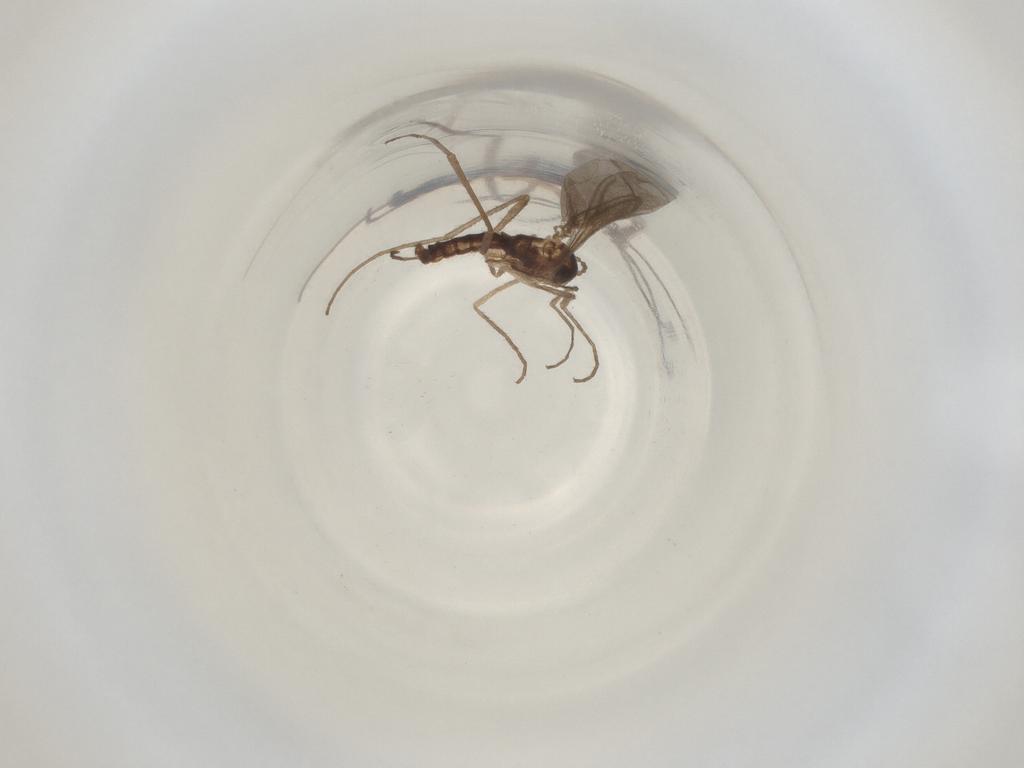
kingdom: Animalia
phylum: Arthropoda
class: Insecta
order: Diptera
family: Cecidomyiidae
